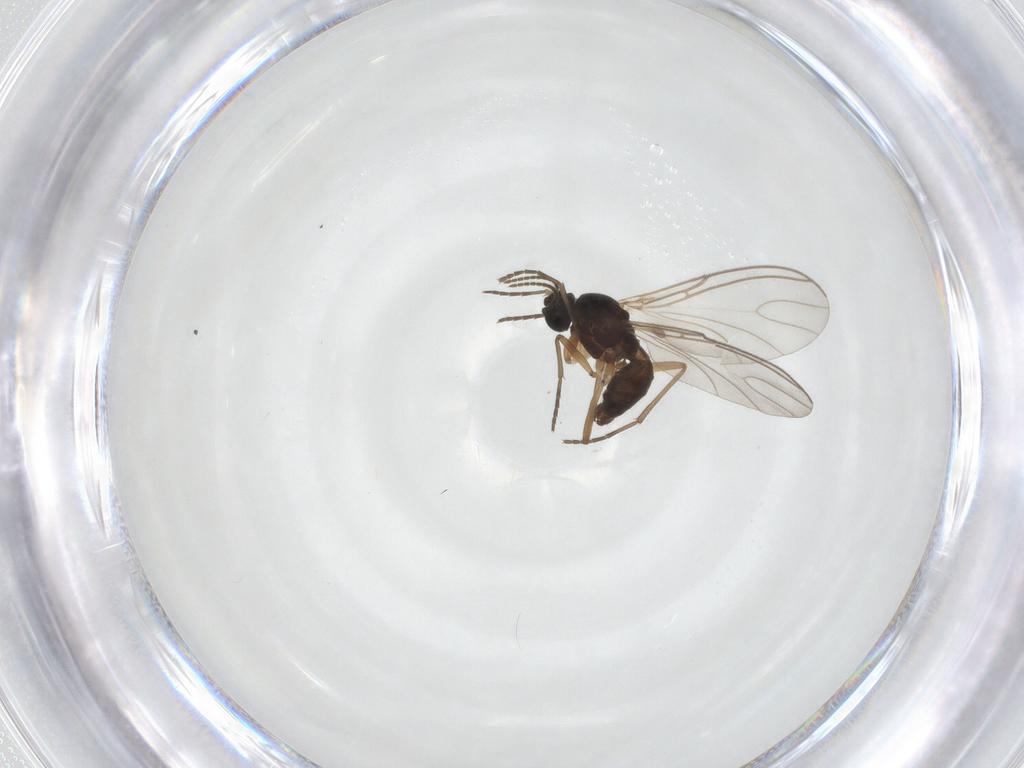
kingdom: Animalia
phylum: Arthropoda
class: Insecta
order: Diptera
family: Sciaridae
